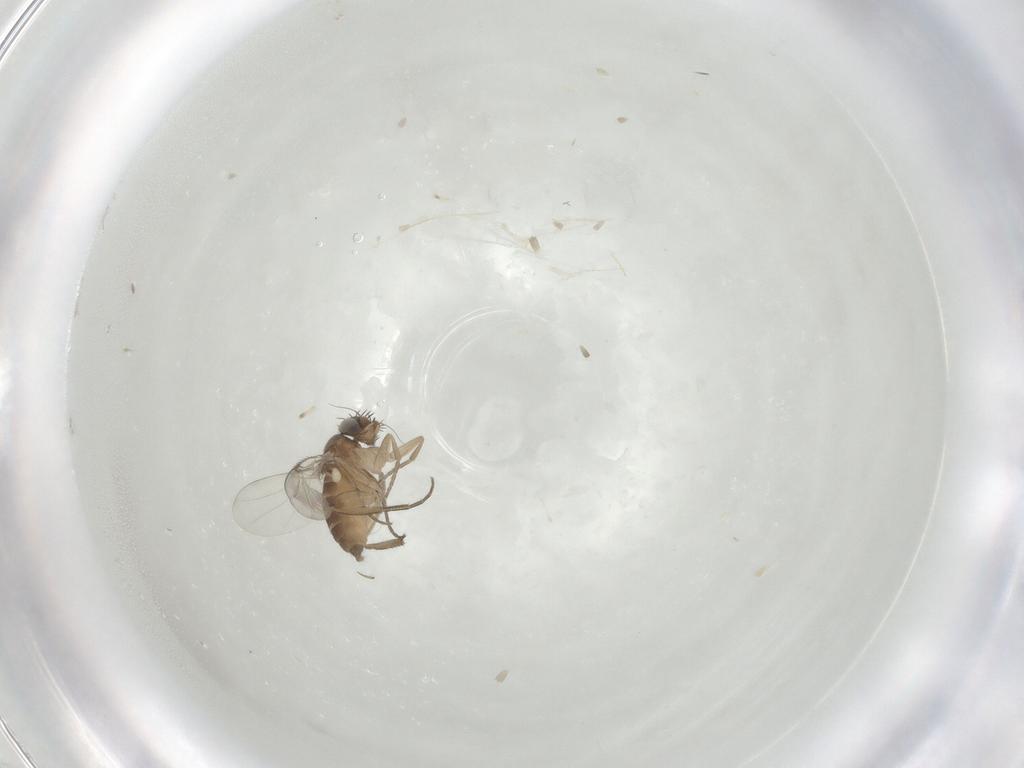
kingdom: Animalia
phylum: Arthropoda
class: Insecta
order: Diptera
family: Phoridae
